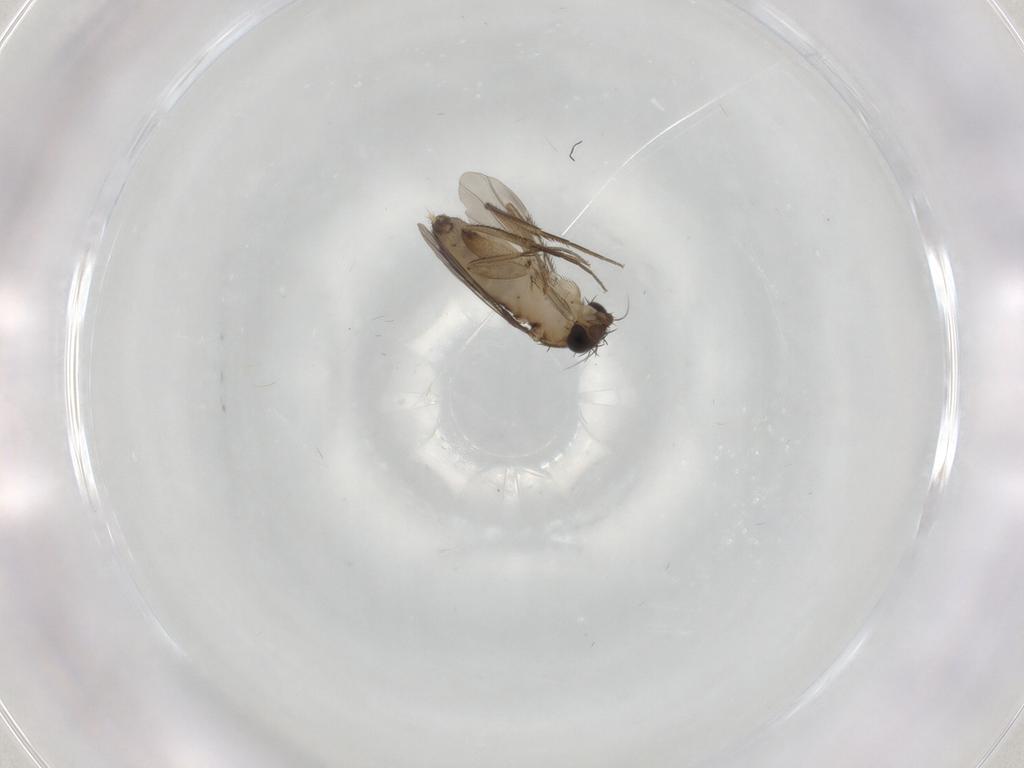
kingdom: Animalia
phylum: Arthropoda
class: Insecta
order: Diptera
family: Phoridae
